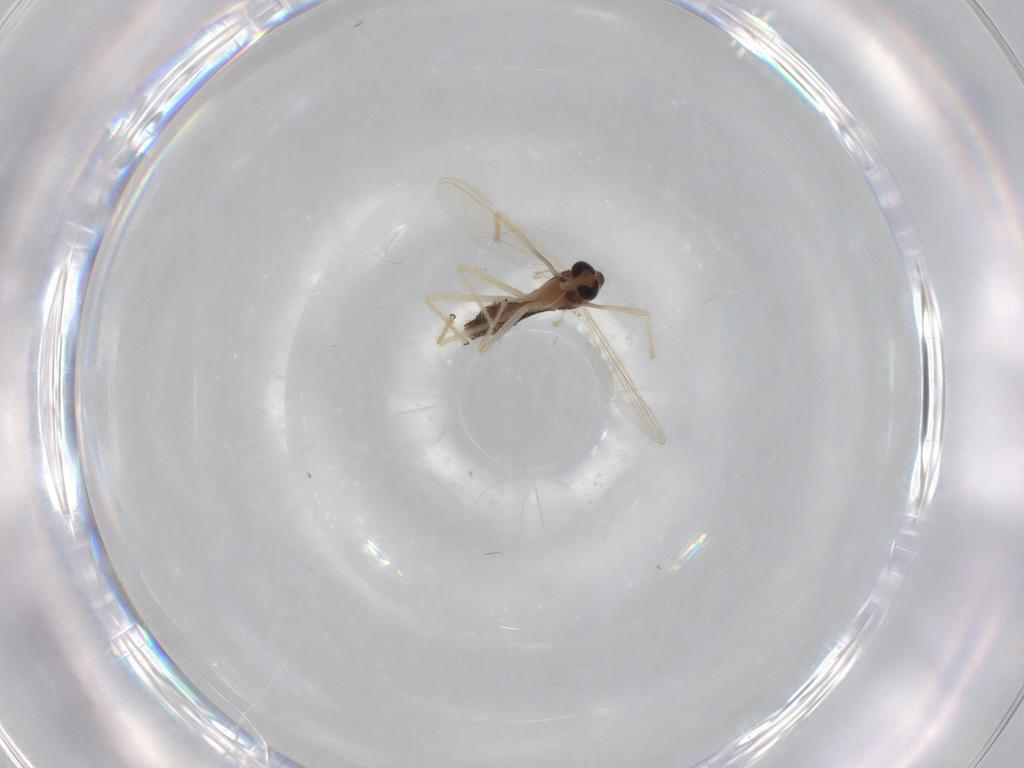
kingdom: Animalia
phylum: Arthropoda
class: Insecta
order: Diptera
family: Chironomidae
